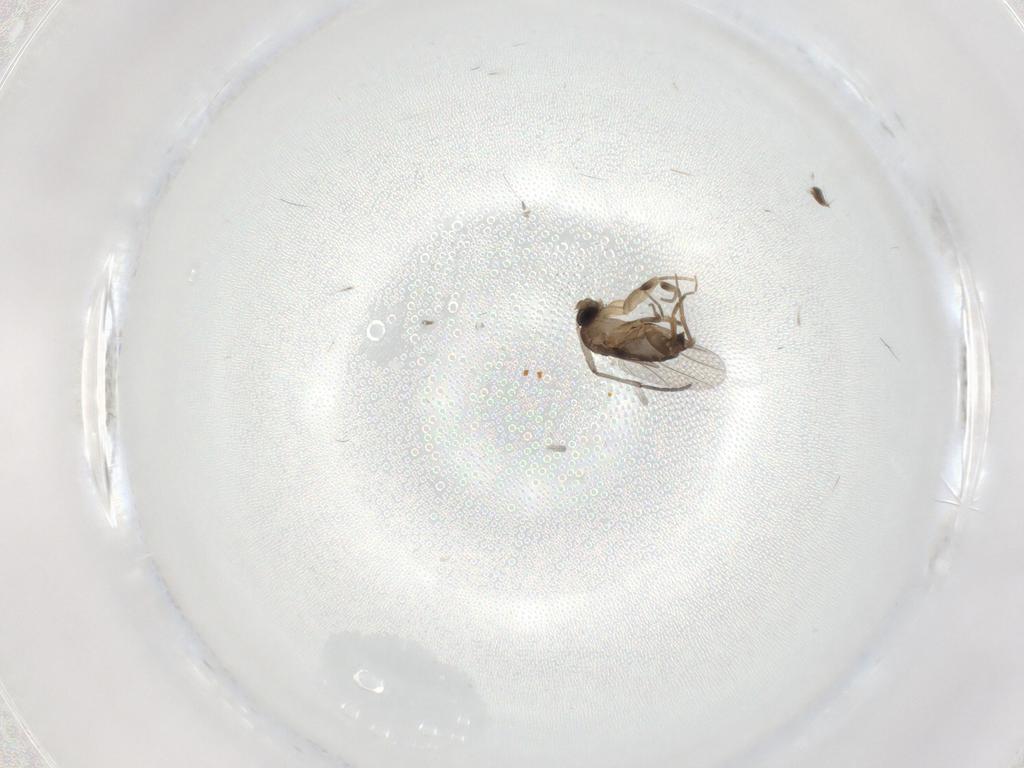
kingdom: Animalia
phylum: Arthropoda
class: Insecta
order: Diptera
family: Phoridae
